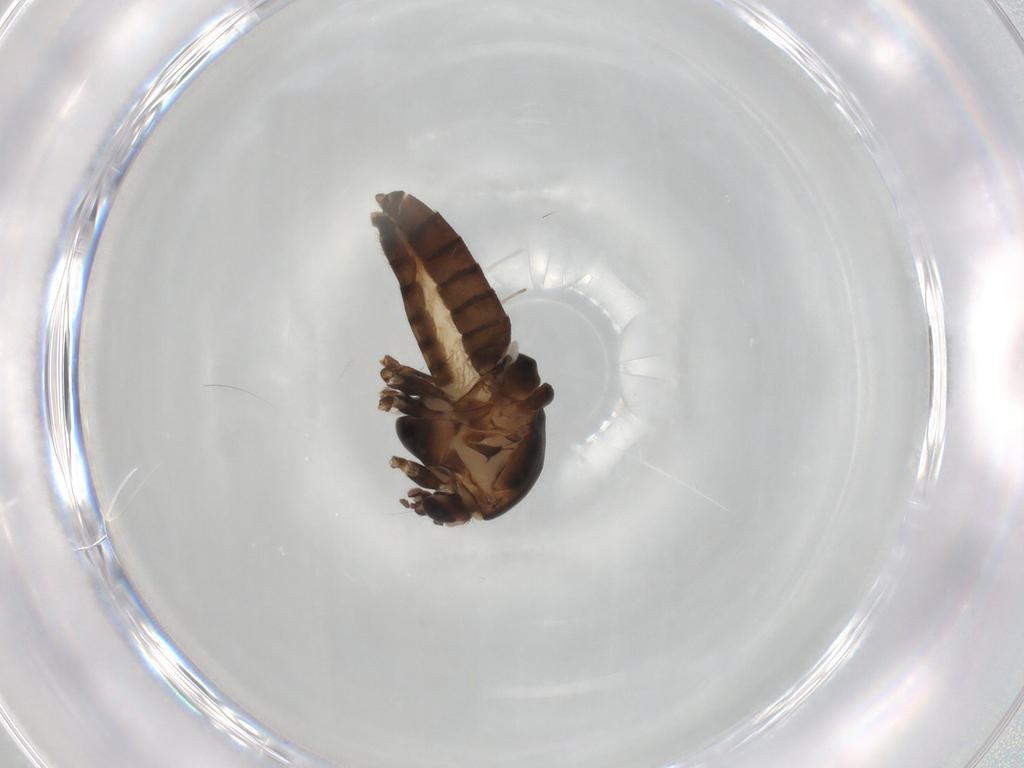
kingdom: Animalia
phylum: Arthropoda
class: Insecta
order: Diptera
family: Chironomidae
